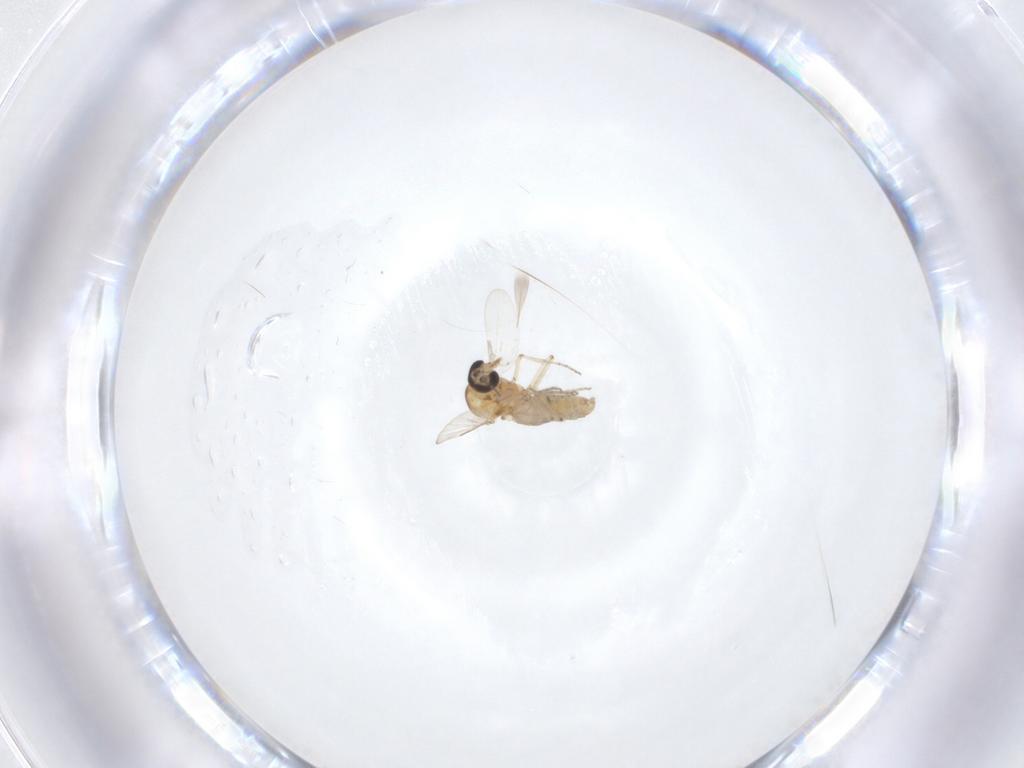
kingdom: Animalia
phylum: Arthropoda
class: Insecta
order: Diptera
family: Ceratopogonidae
